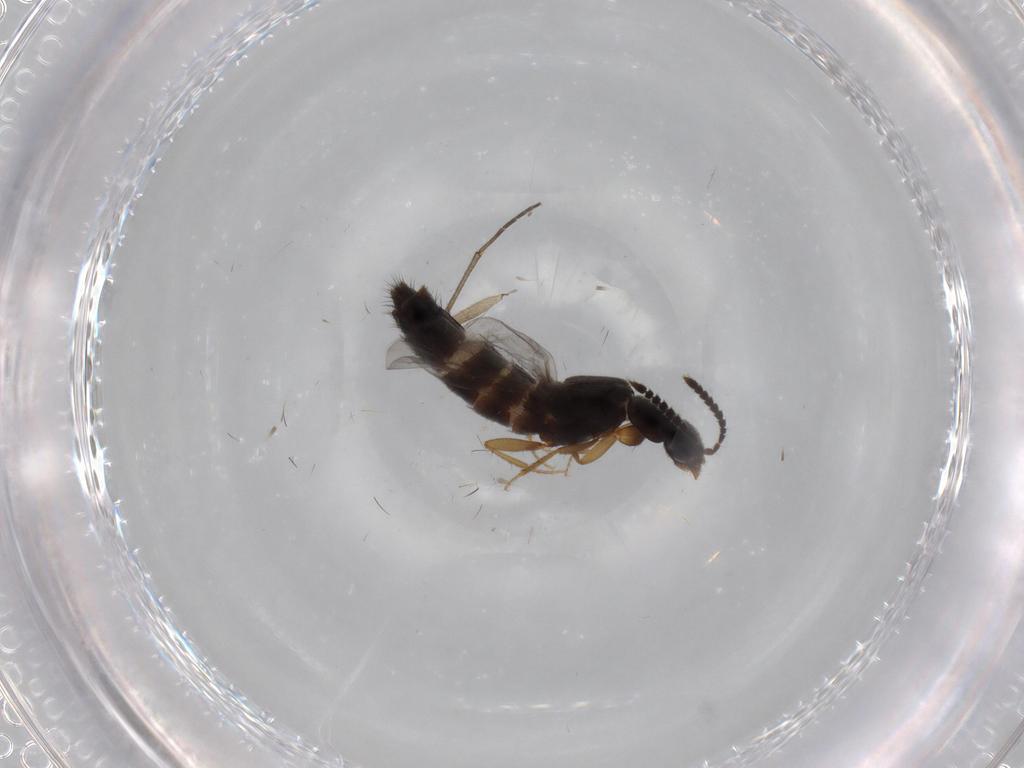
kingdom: Animalia
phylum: Arthropoda
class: Insecta
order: Coleoptera
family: Staphylinidae
